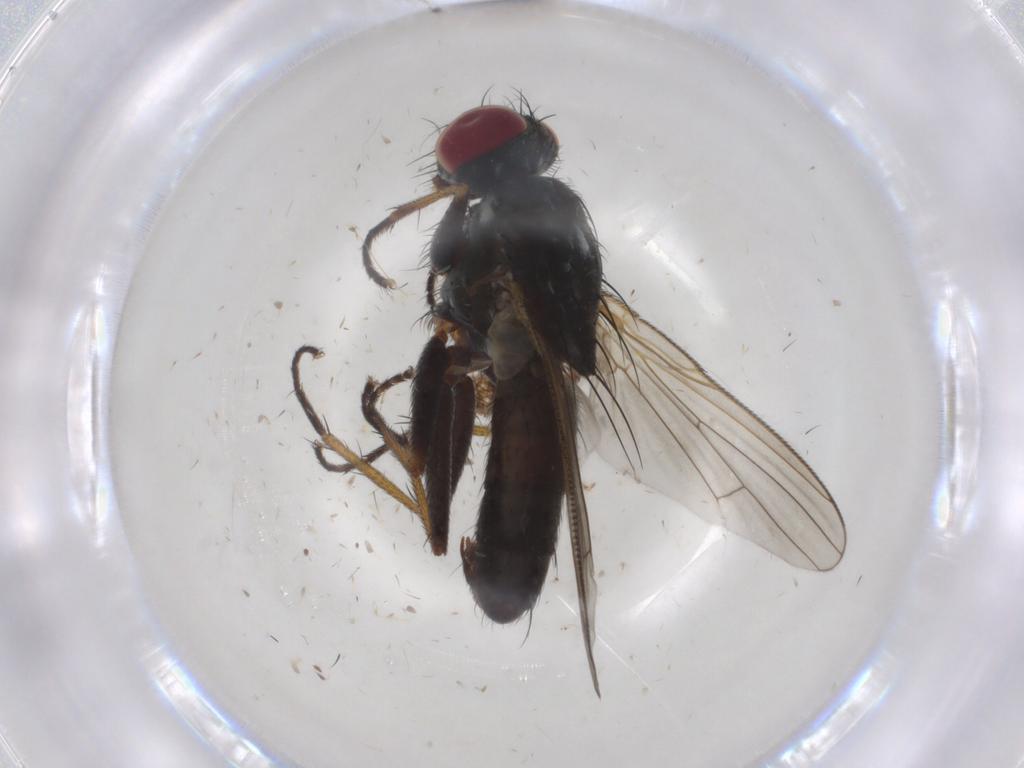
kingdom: Animalia
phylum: Arthropoda
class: Insecta
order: Diptera
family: Muscidae
